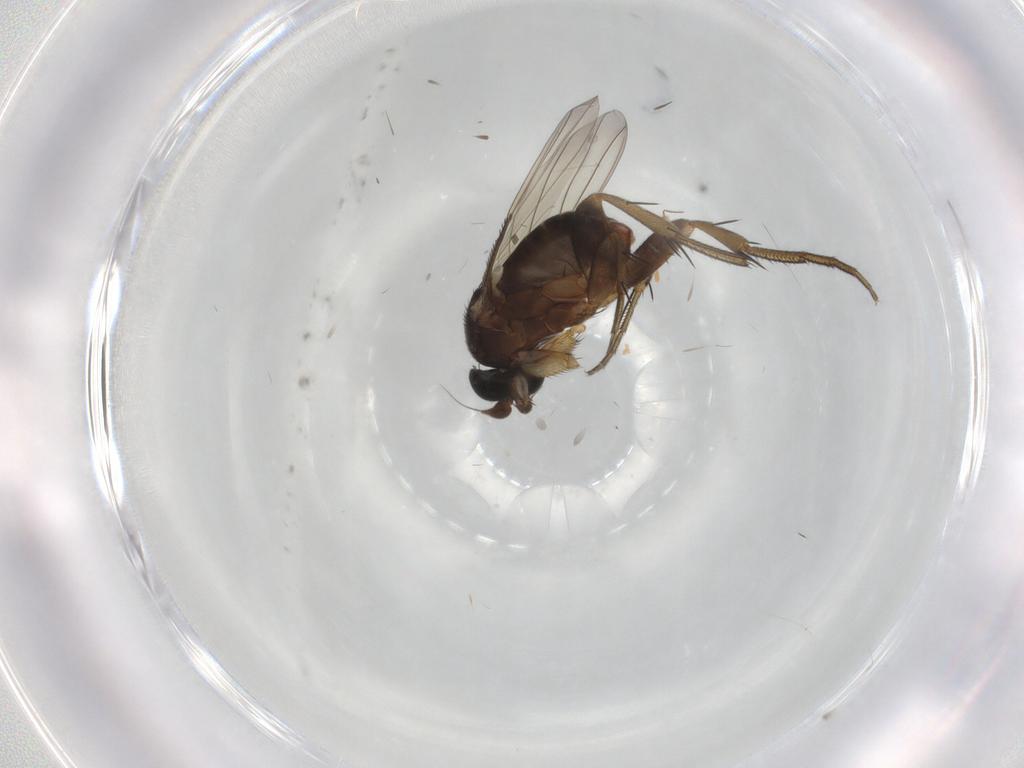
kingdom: Animalia
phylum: Arthropoda
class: Insecta
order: Diptera
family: Phoridae
